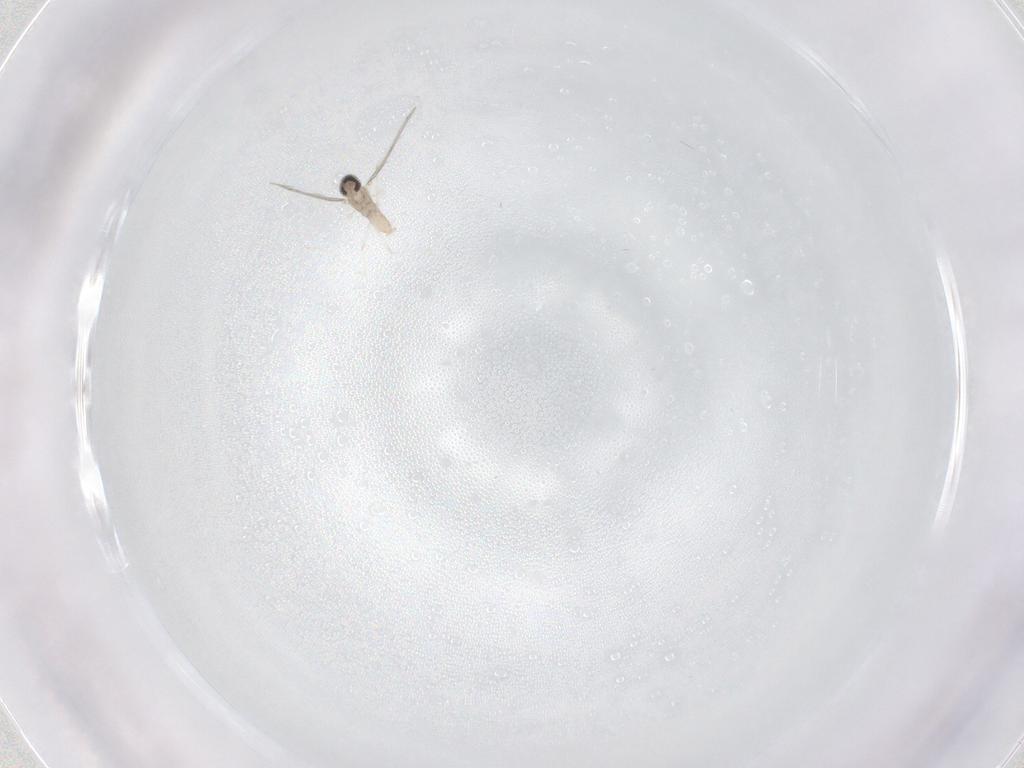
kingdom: Animalia
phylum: Arthropoda
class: Insecta
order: Diptera
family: Cecidomyiidae
